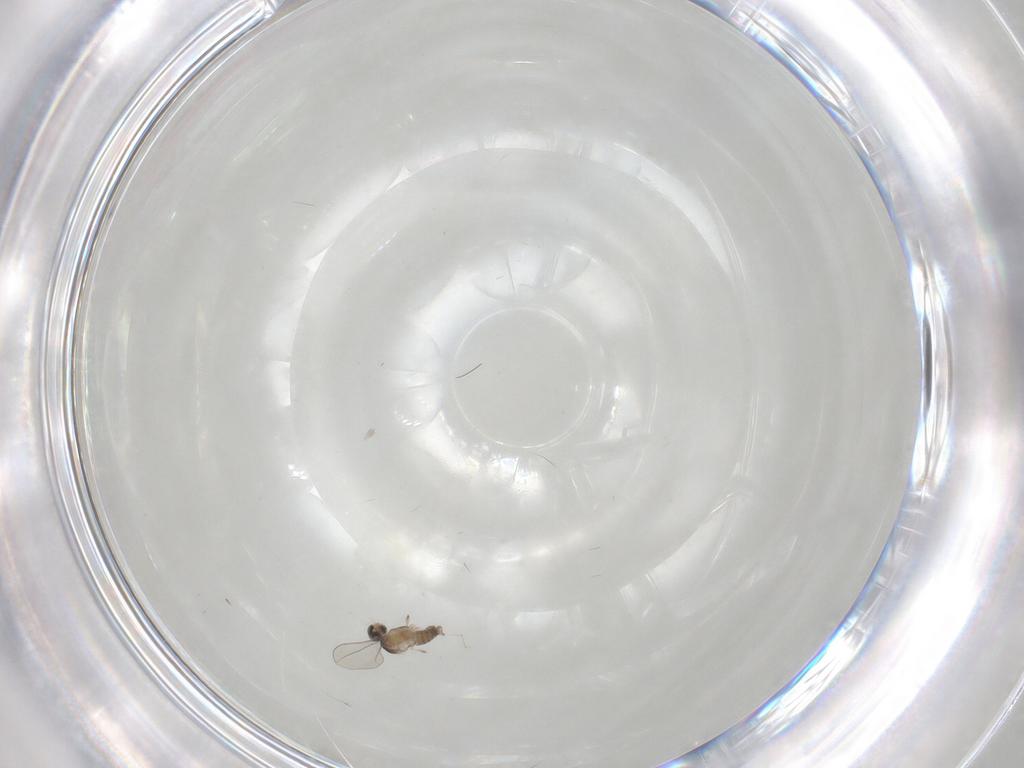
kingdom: Animalia
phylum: Arthropoda
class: Insecta
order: Diptera
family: Cecidomyiidae
